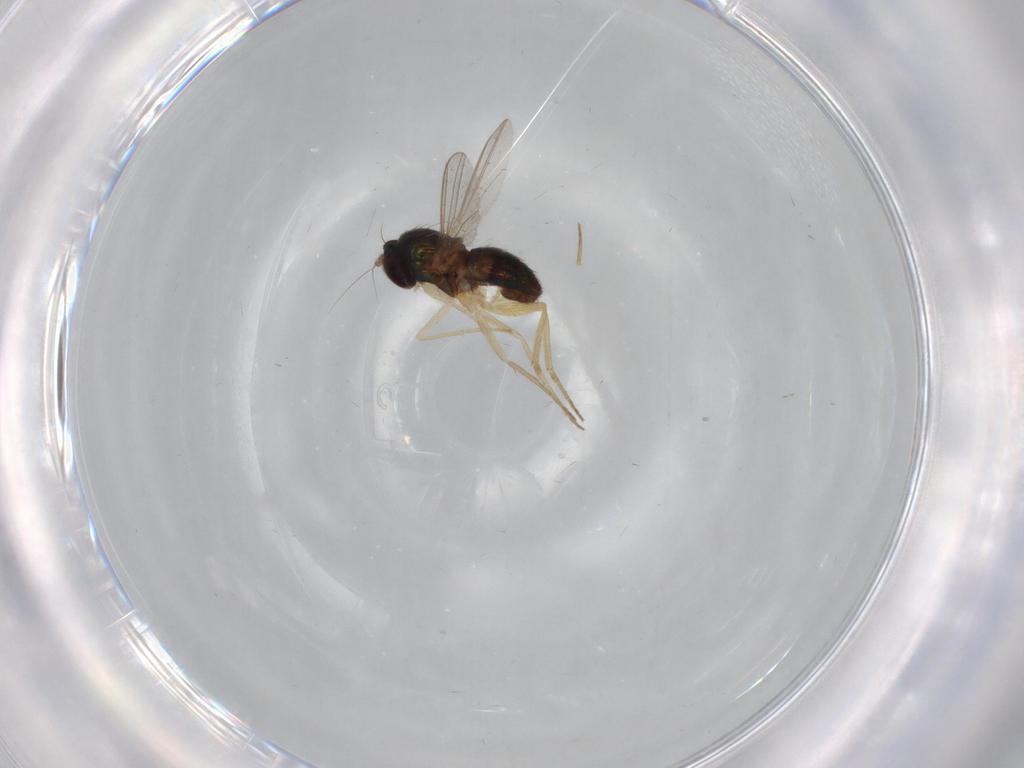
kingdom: Animalia
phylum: Arthropoda
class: Insecta
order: Diptera
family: Dolichopodidae
